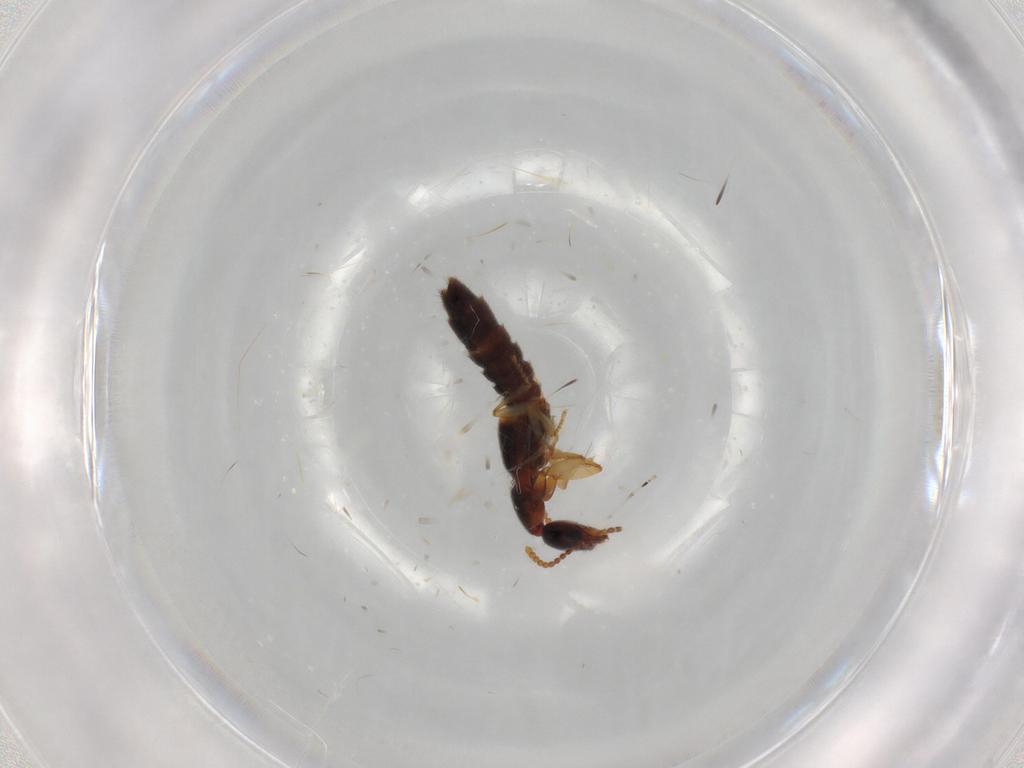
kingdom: Animalia
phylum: Arthropoda
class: Insecta
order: Coleoptera
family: Staphylinidae
